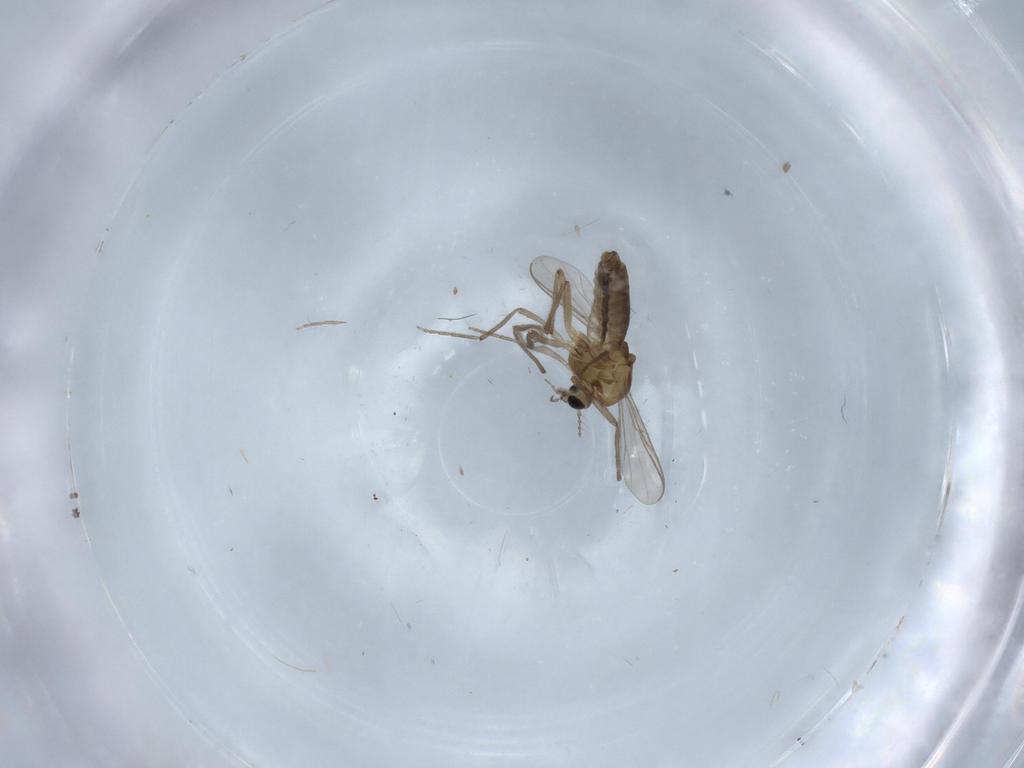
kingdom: Animalia
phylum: Arthropoda
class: Insecta
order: Diptera
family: Chironomidae
